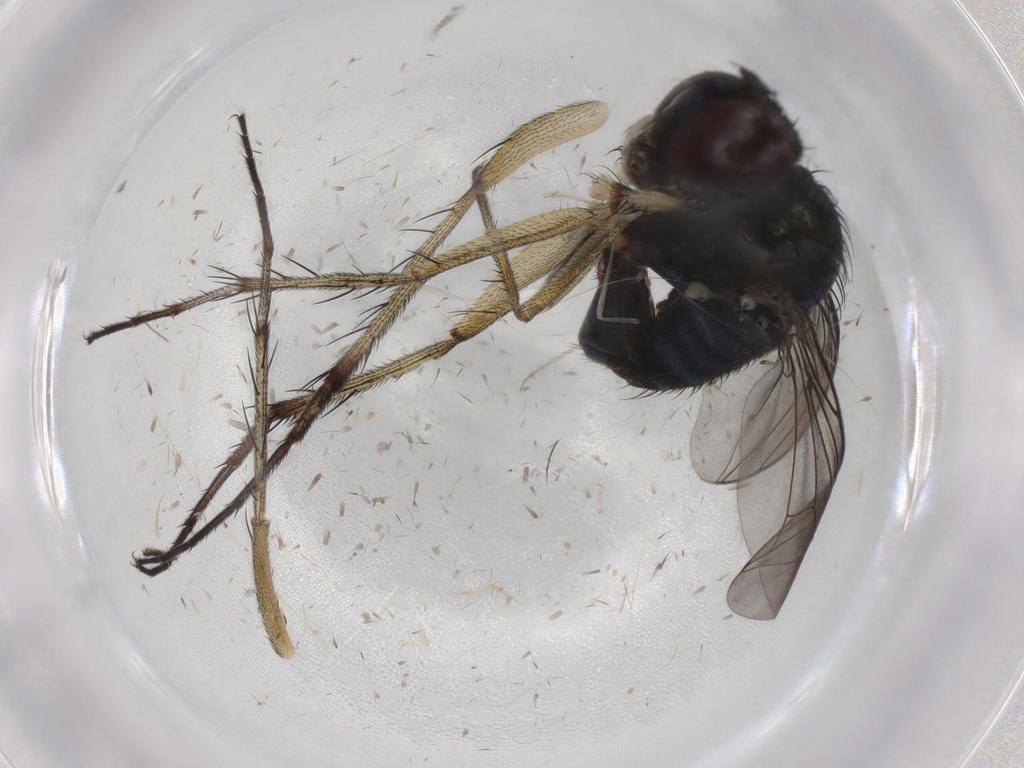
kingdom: Animalia
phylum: Arthropoda
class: Insecta
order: Diptera
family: Dolichopodidae
